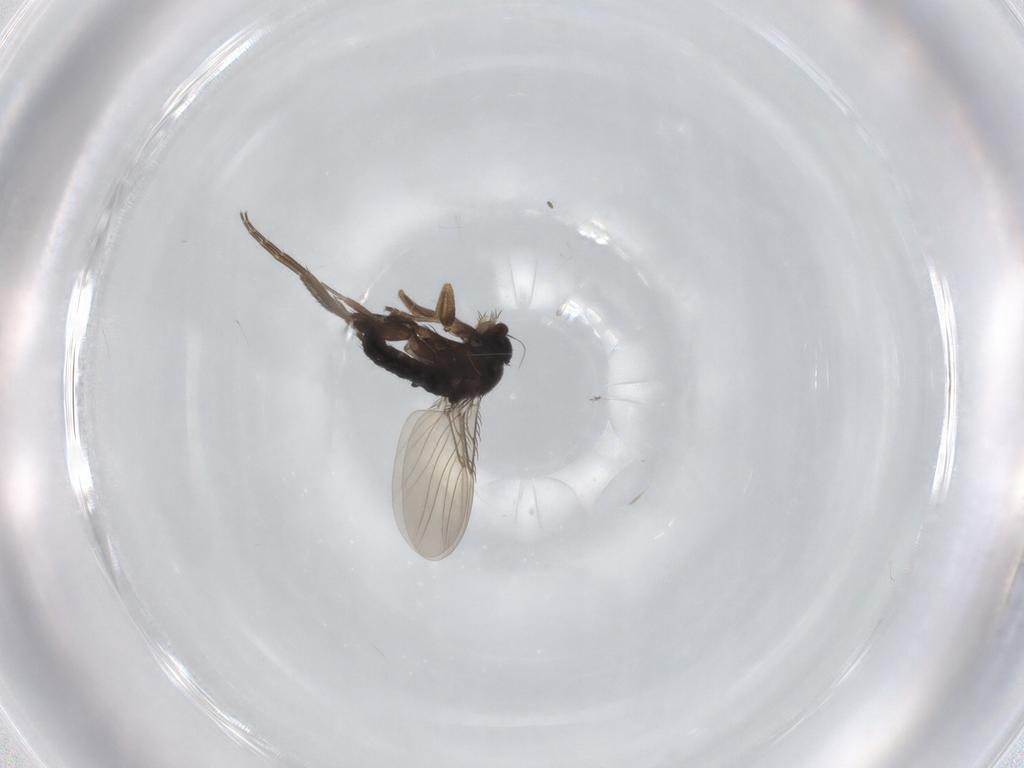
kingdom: Animalia
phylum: Arthropoda
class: Insecta
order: Diptera
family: Phoridae
